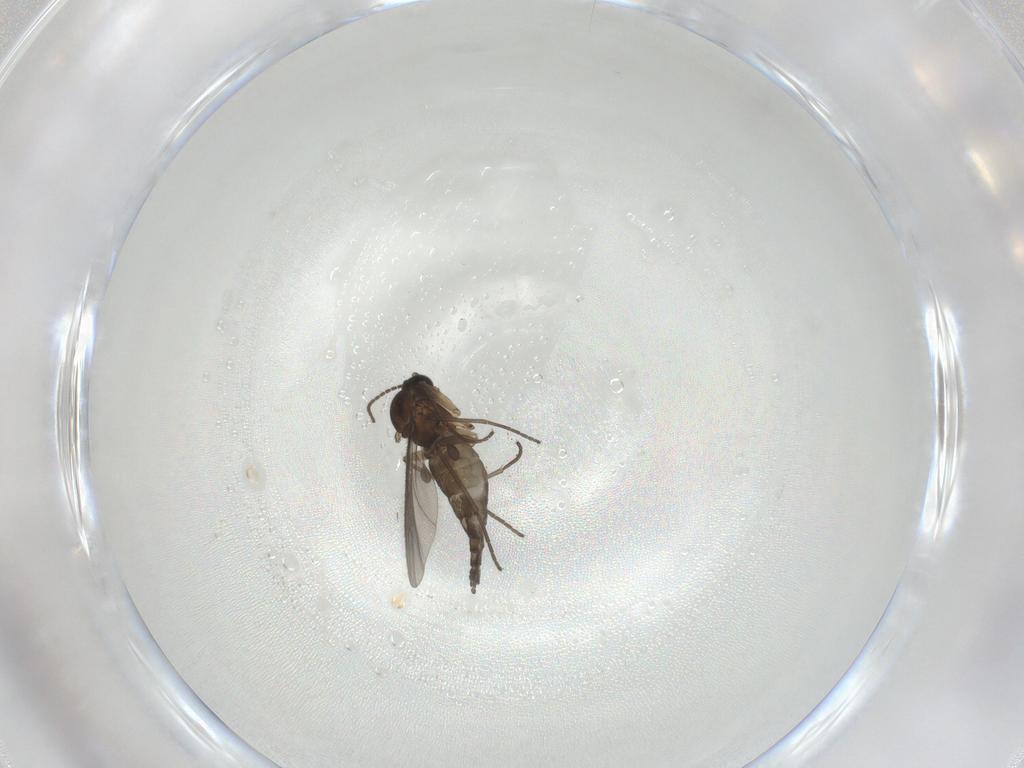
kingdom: Animalia
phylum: Arthropoda
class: Insecta
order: Diptera
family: Sciaridae
